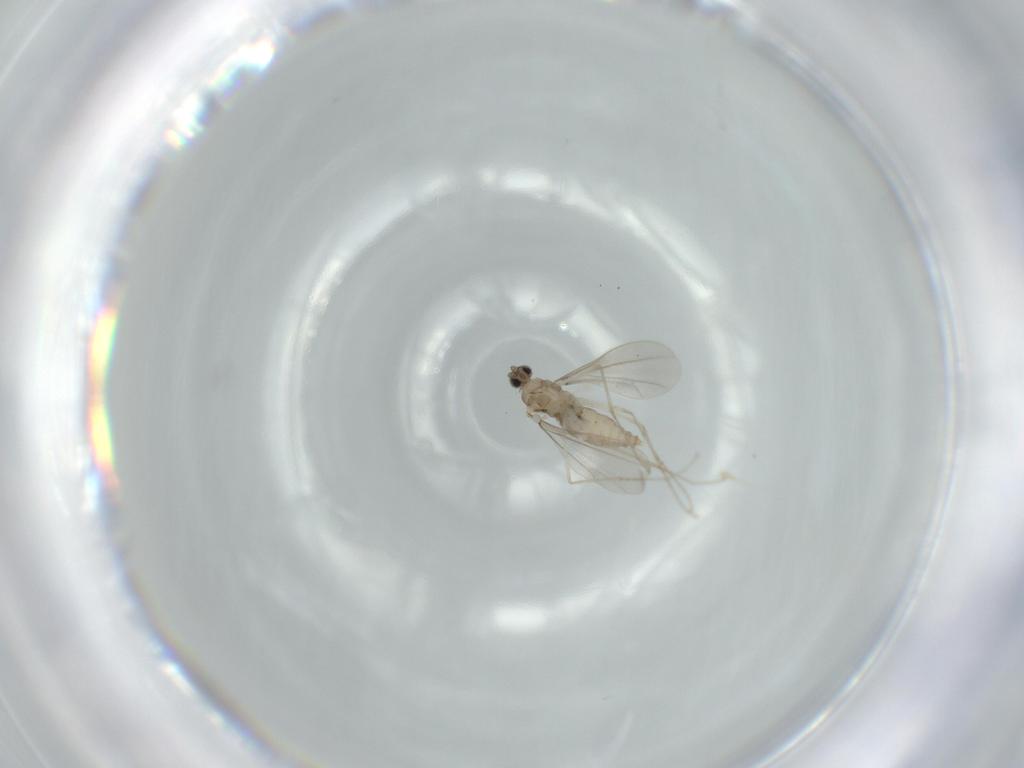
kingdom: Animalia
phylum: Arthropoda
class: Insecta
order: Diptera
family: Cecidomyiidae
